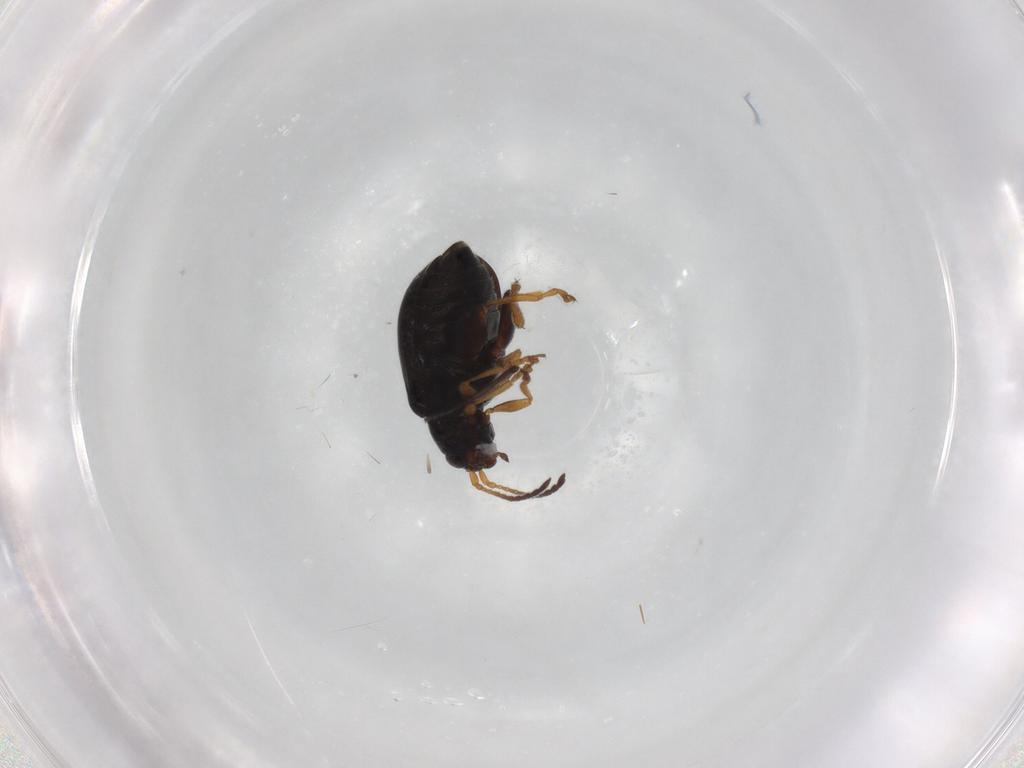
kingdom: Animalia
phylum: Arthropoda
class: Insecta
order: Coleoptera
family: Chrysomelidae
